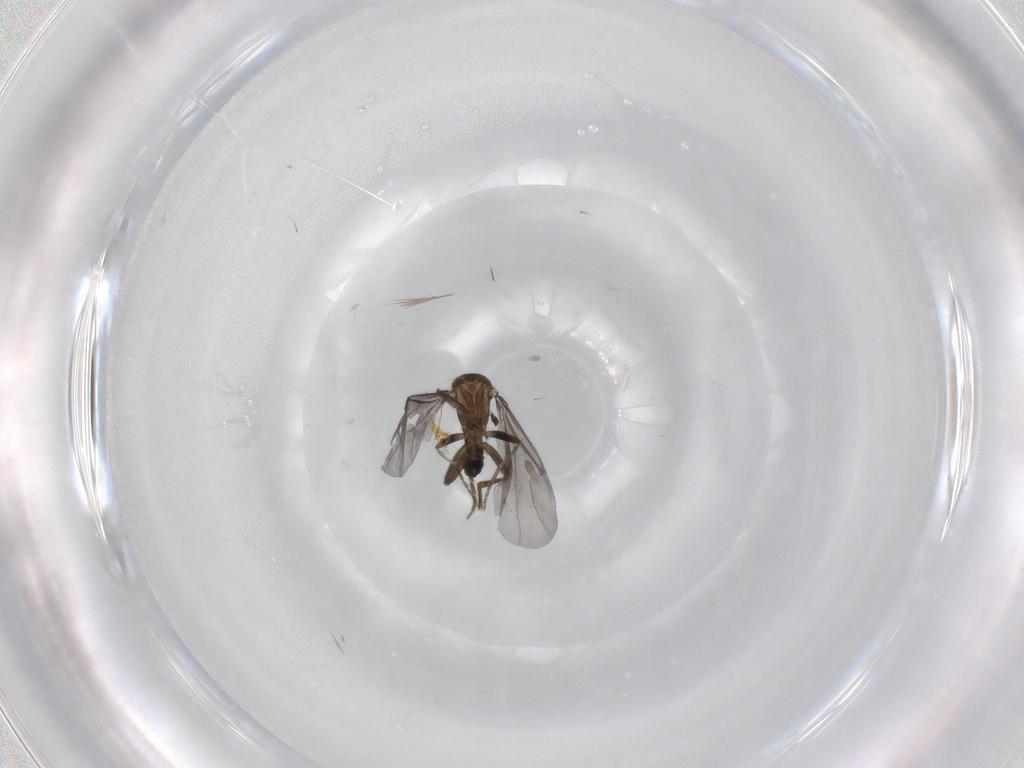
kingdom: Animalia
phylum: Arthropoda
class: Insecta
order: Diptera
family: Phoridae
